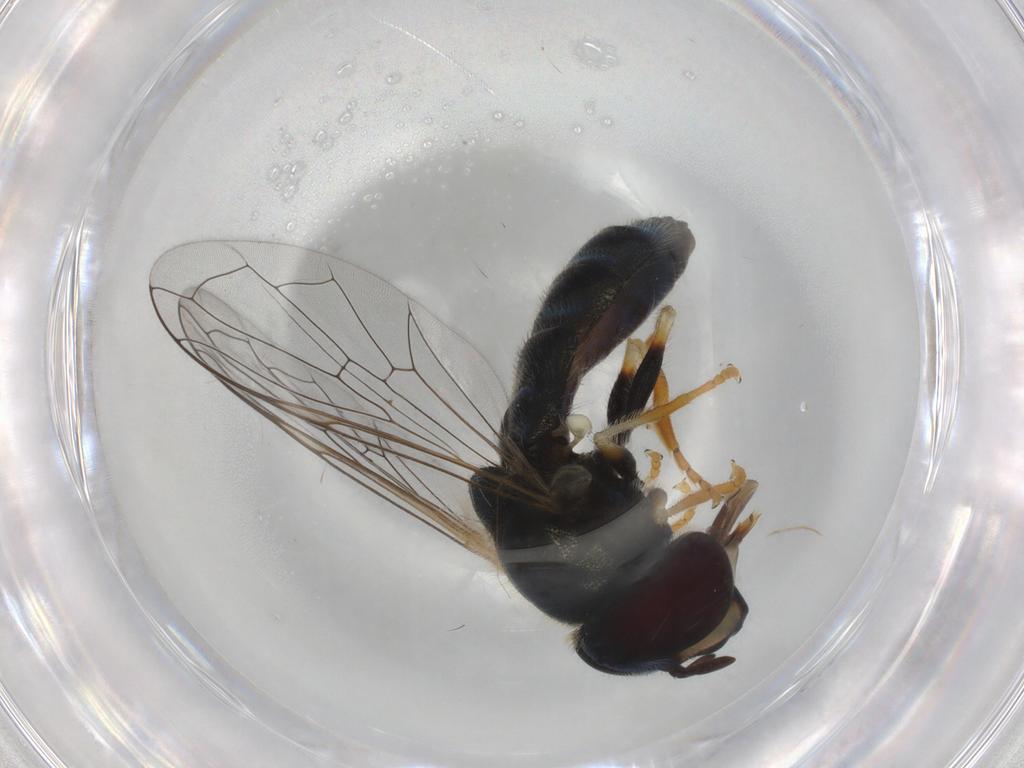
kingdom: Animalia
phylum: Arthropoda
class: Insecta
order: Diptera
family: Syrphidae
